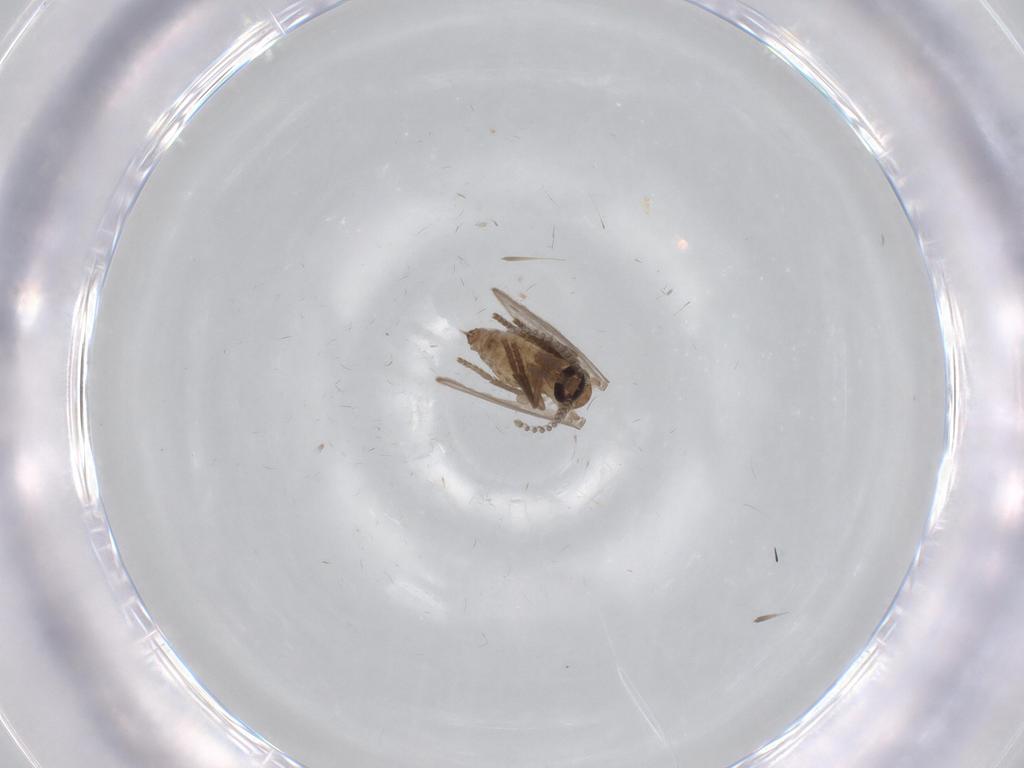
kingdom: Animalia
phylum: Arthropoda
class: Insecta
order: Diptera
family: Psychodidae
